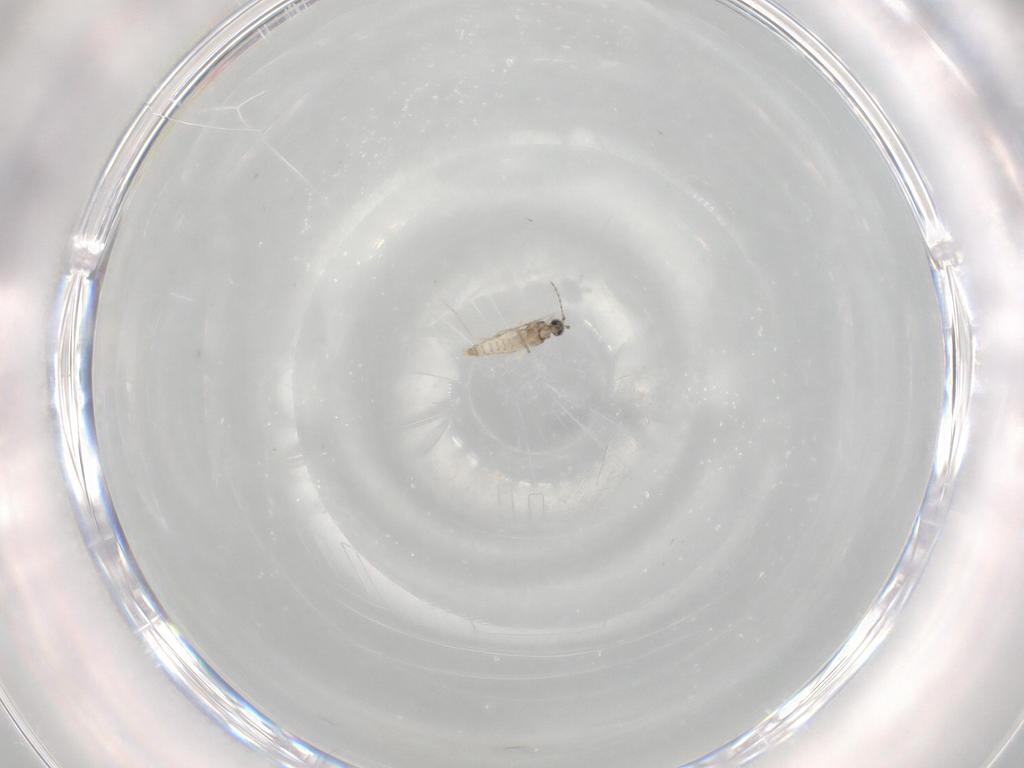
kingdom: Animalia
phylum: Arthropoda
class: Insecta
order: Diptera
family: Cecidomyiidae
